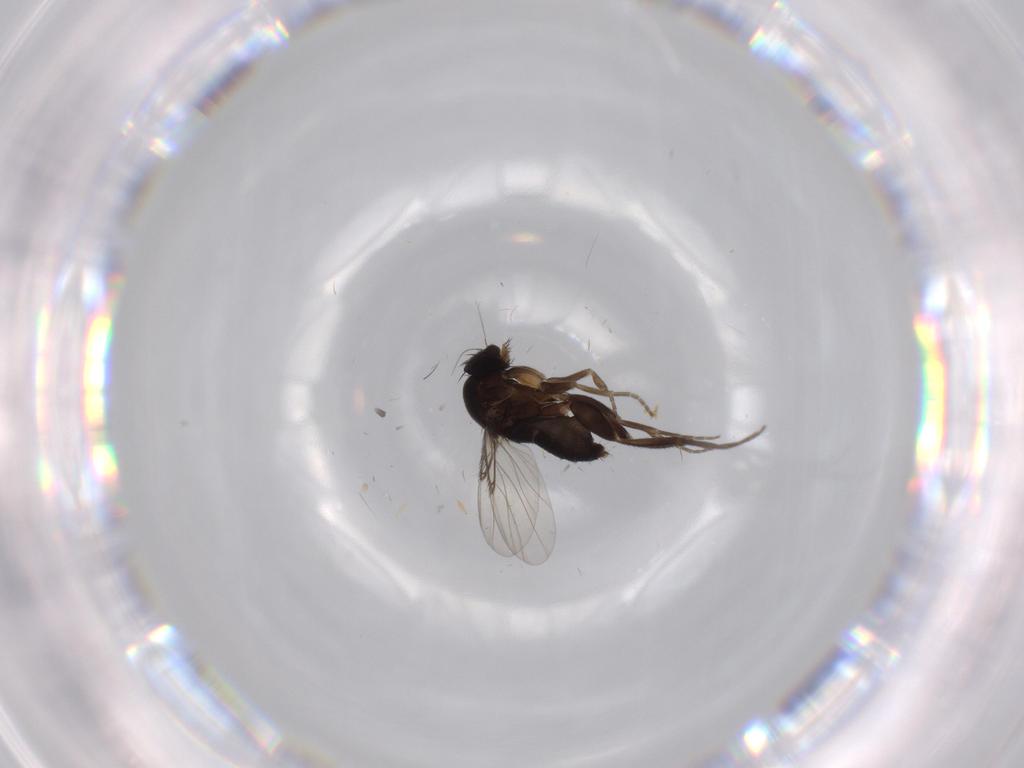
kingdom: Animalia
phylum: Arthropoda
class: Insecta
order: Diptera
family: Phoridae
